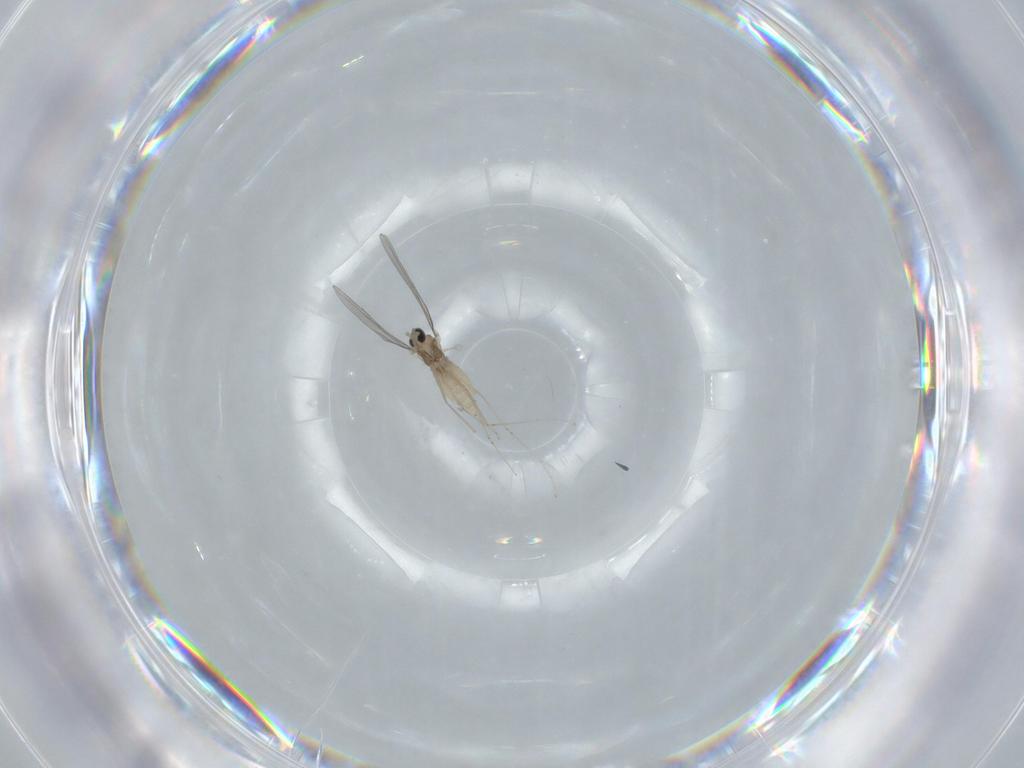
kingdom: Animalia
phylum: Arthropoda
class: Insecta
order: Diptera
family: Cecidomyiidae
